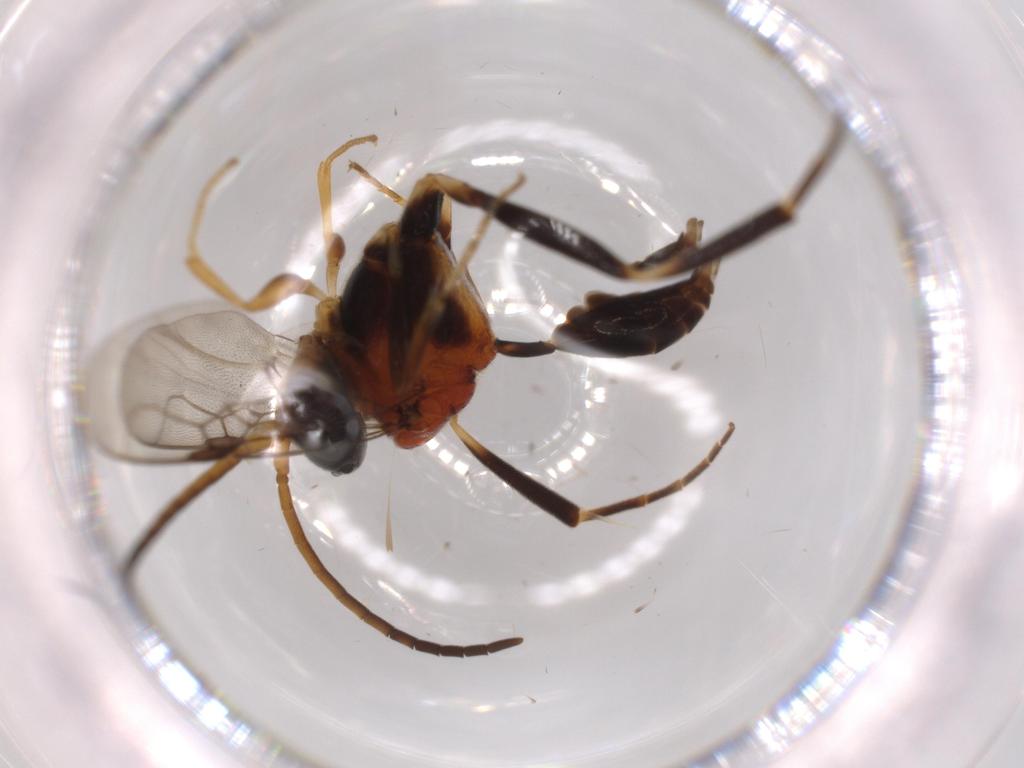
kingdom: Animalia
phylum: Arthropoda
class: Insecta
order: Hymenoptera
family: Evaniidae
